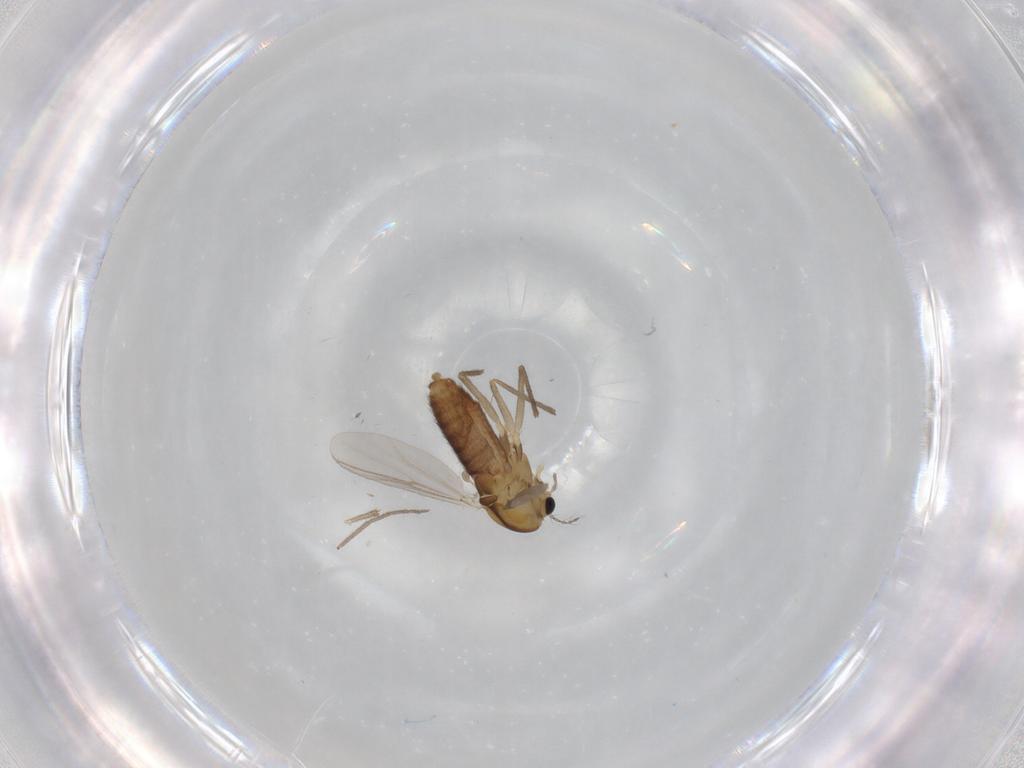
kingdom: Animalia
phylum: Arthropoda
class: Insecta
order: Diptera
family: Chironomidae
